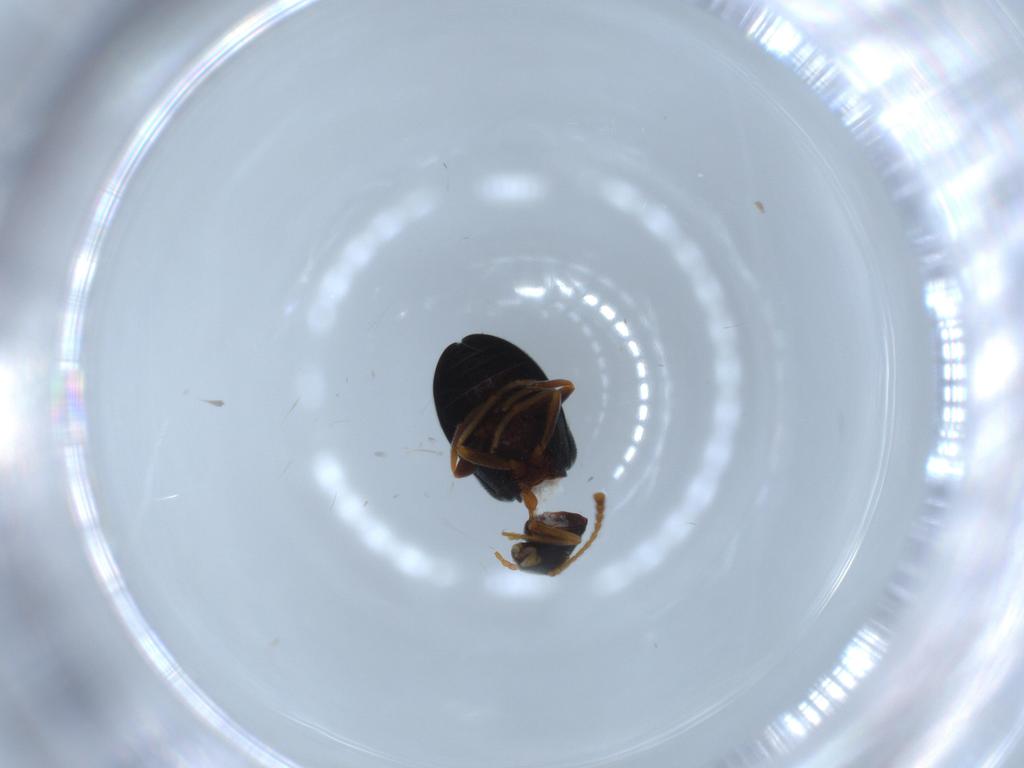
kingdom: Animalia
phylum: Arthropoda
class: Insecta
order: Coleoptera
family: Aderidae
